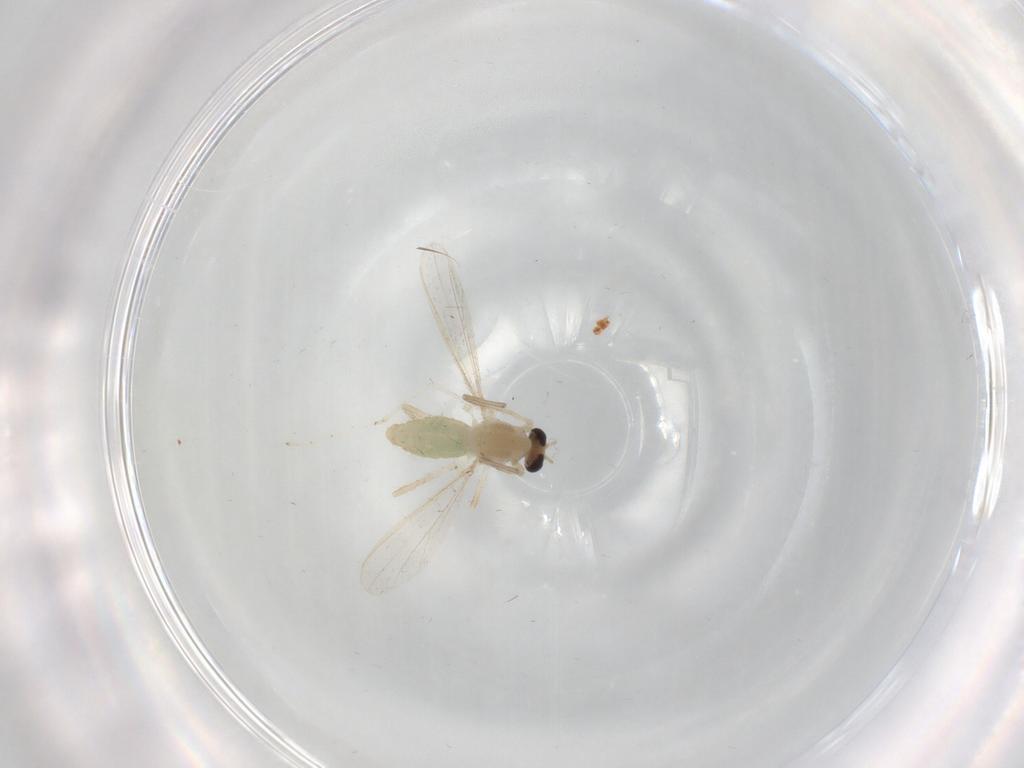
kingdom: Animalia
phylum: Arthropoda
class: Insecta
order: Diptera
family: Chironomidae
